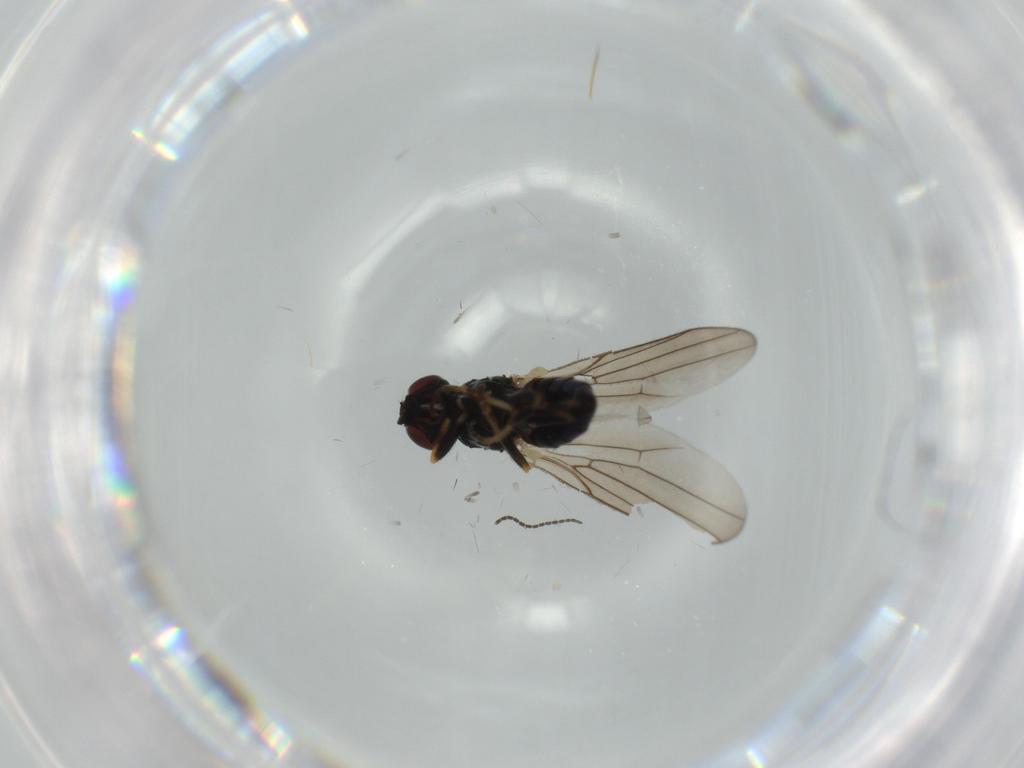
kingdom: Animalia
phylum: Arthropoda
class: Insecta
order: Diptera
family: Chloropidae
